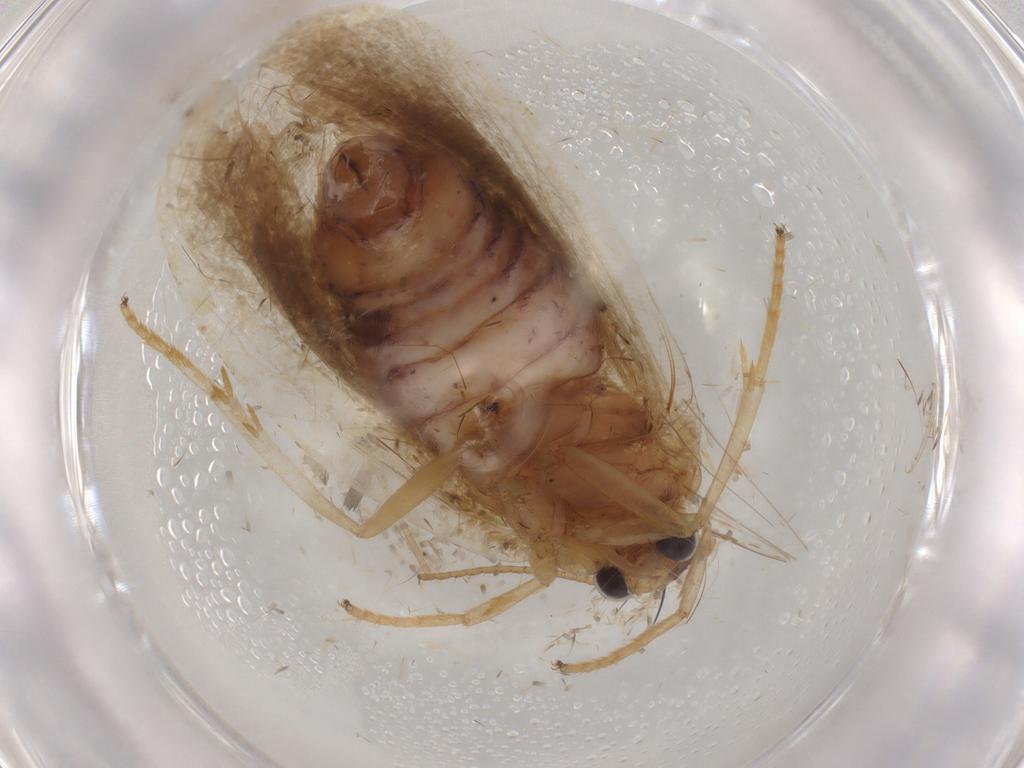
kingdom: Animalia
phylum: Arthropoda
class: Insecta
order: Lepidoptera
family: Erebidae
